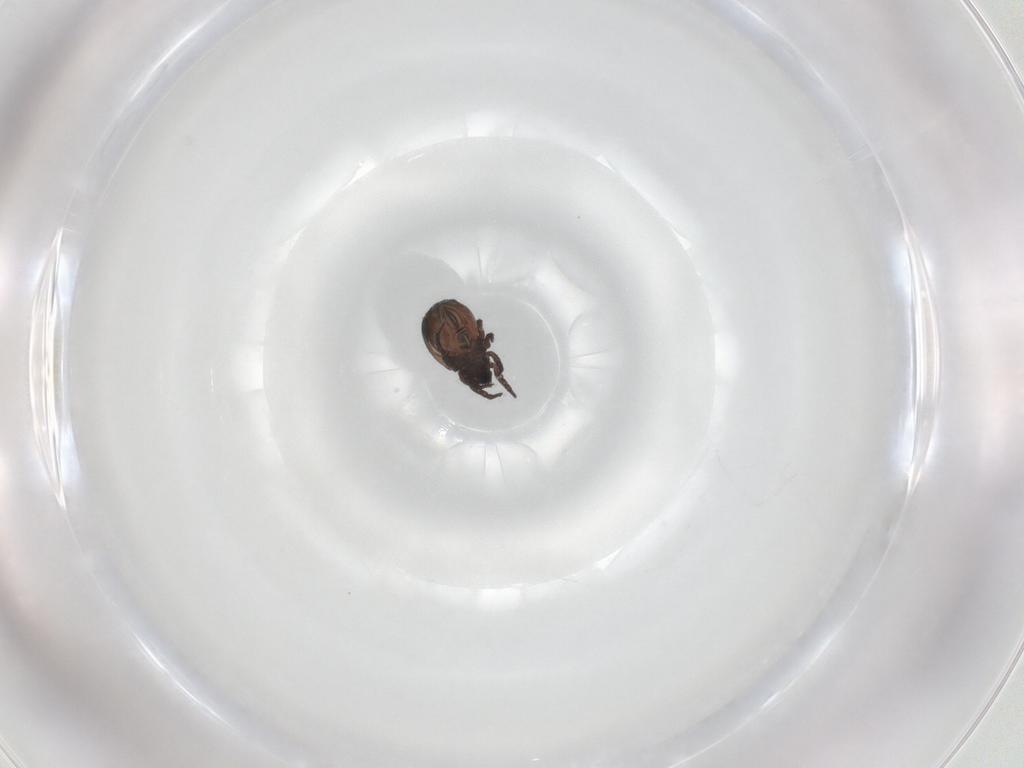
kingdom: Animalia
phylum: Arthropoda
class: Arachnida
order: Sarcoptiformes
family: Crotoniidae
